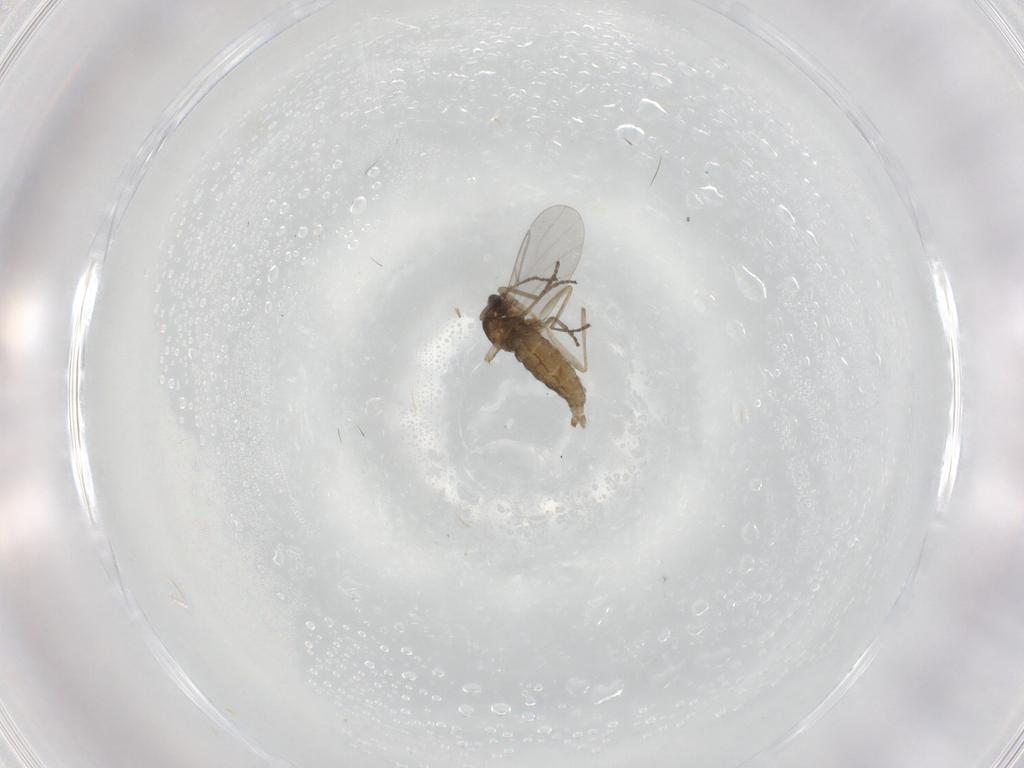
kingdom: Animalia
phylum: Arthropoda
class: Insecta
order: Diptera
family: Cecidomyiidae
